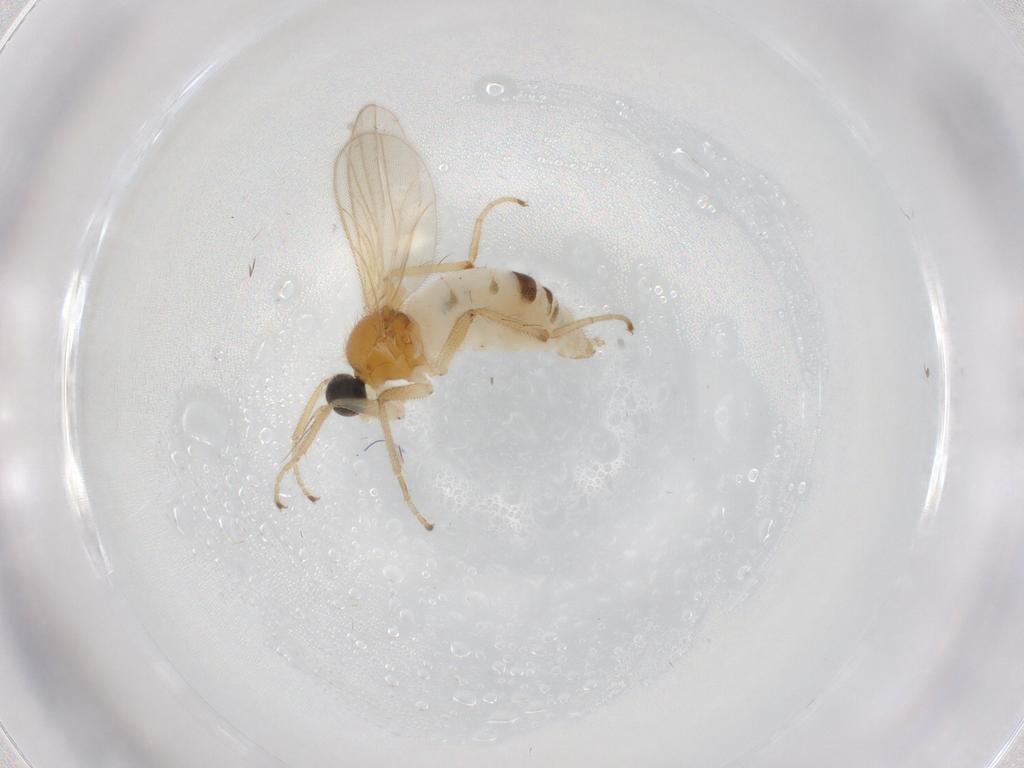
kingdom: Animalia
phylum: Arthropoda
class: Insecta
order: Diptera
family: Hybotidae
